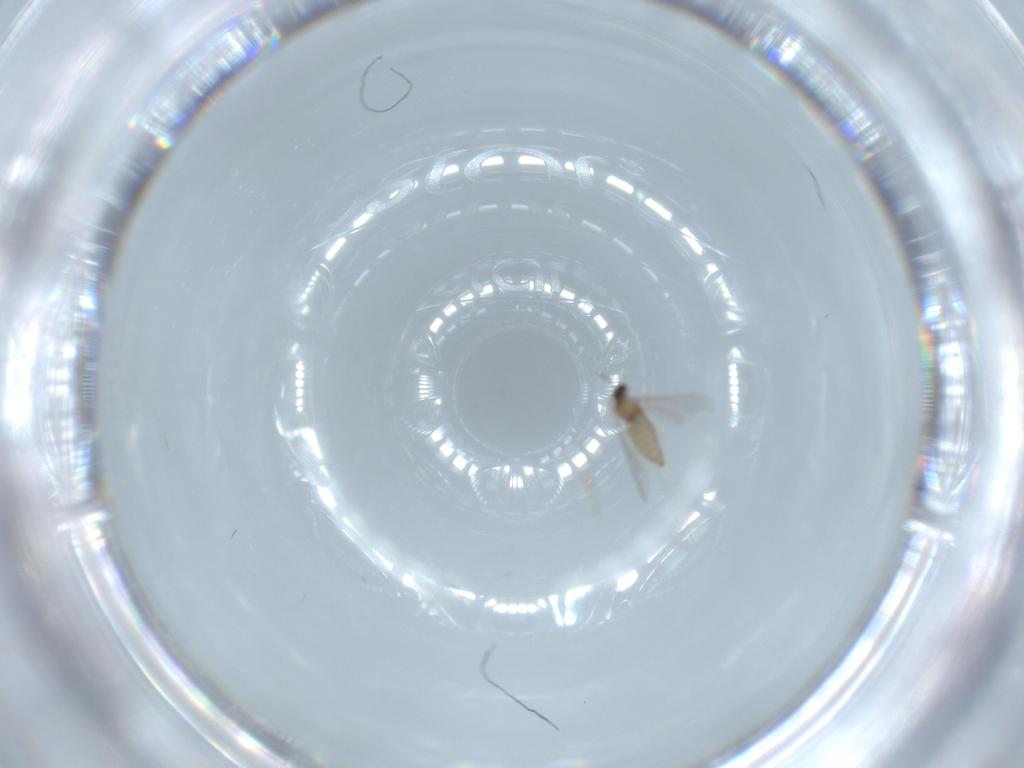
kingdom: Animalia
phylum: Arthropoda
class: Insecta
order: Diptera
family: Cecidomyiidae
